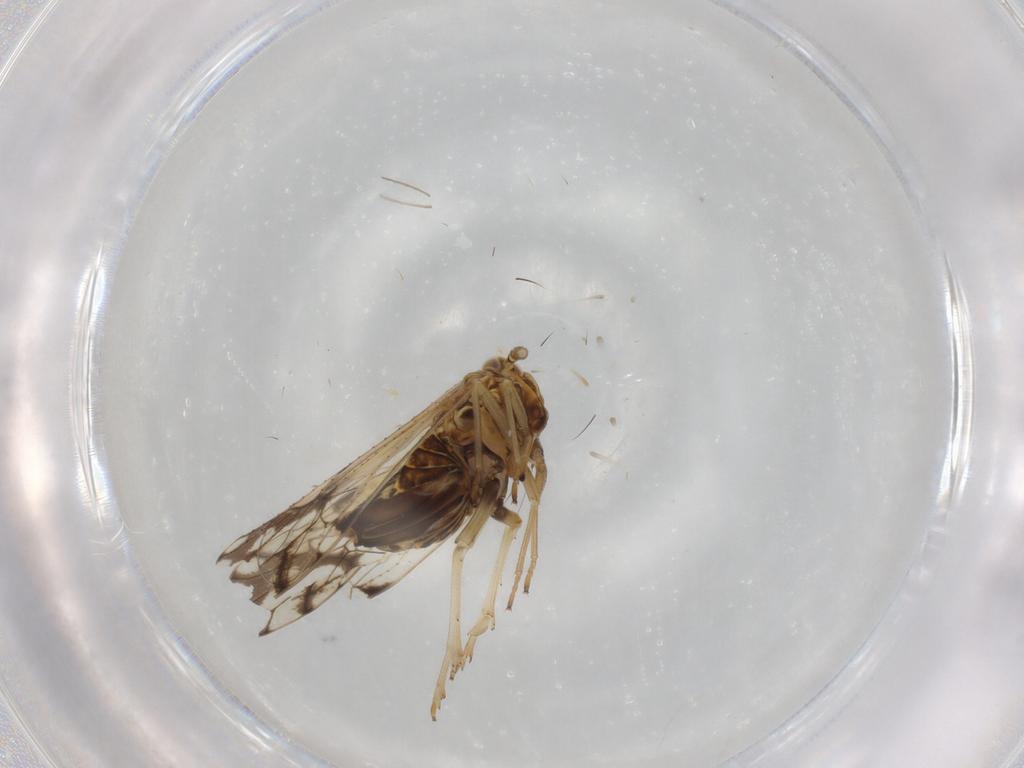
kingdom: Animalia
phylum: Arthropoda
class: Insecta
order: Hemiptera
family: Delphacidae
